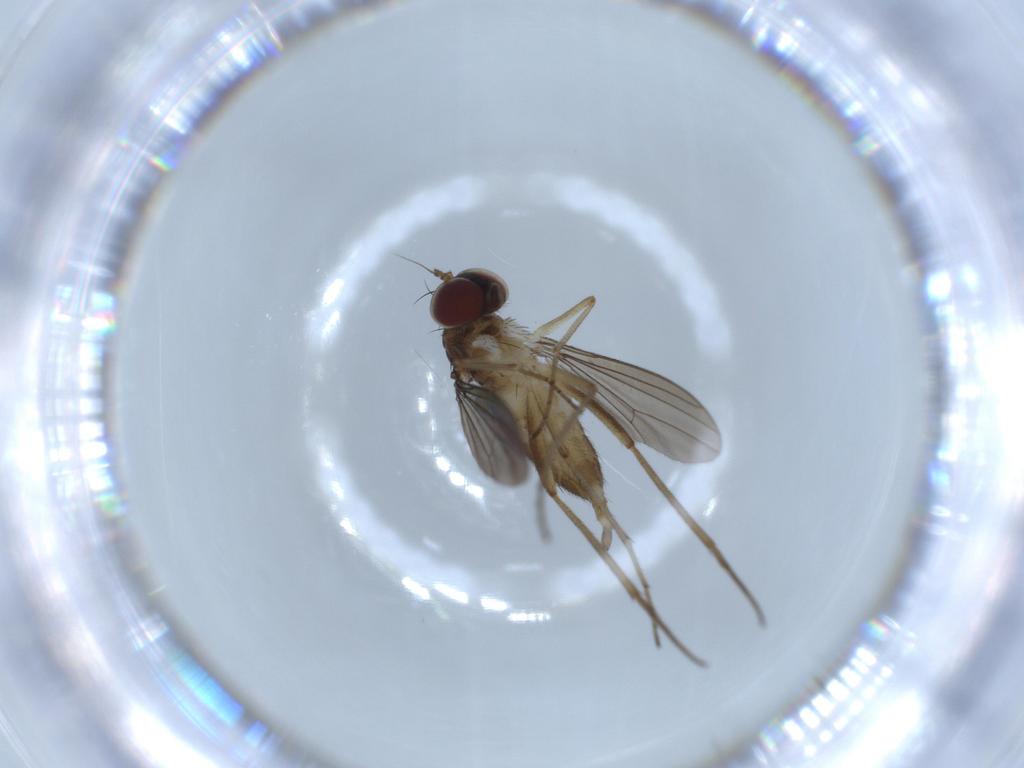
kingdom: Animalia
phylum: Arthropoda
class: Insecta
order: Diptera
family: Dolichopodidae
